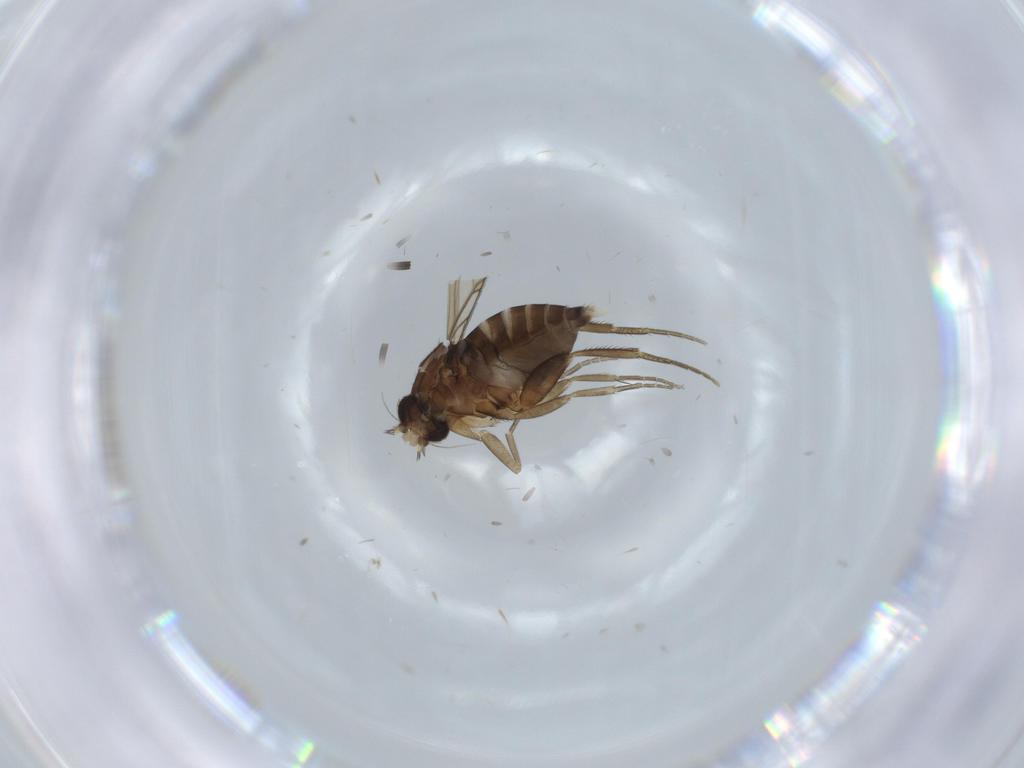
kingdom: Animalia
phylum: Arthropoda
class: Insecta
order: Diptera
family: Phoridae
